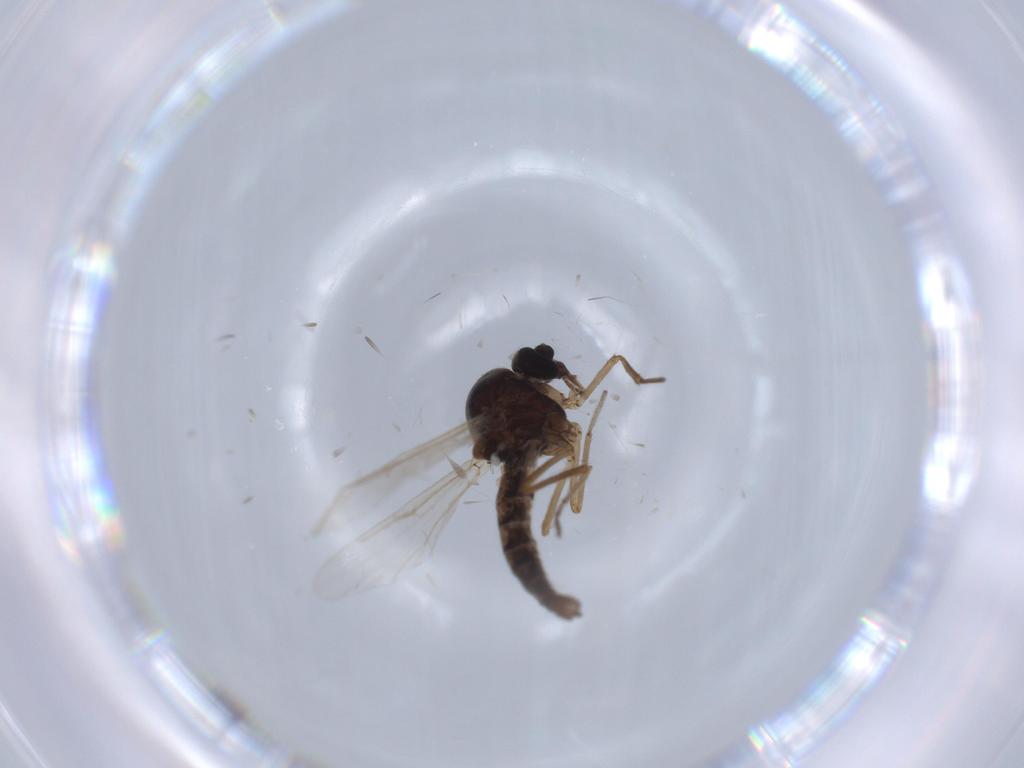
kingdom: Animalia
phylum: Arthropoda
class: Insecta
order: Diptera
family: Ceratopogonidae
